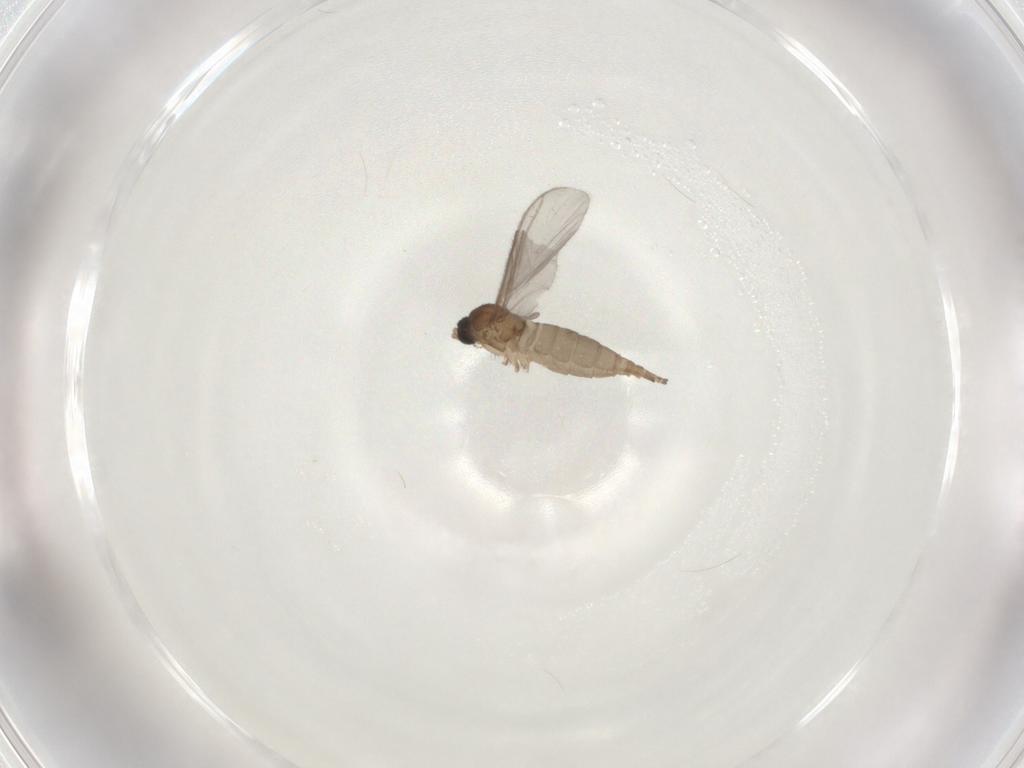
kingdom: Animalia
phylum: Arthropoda
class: Insecta
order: Diptera
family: Sciaridae
